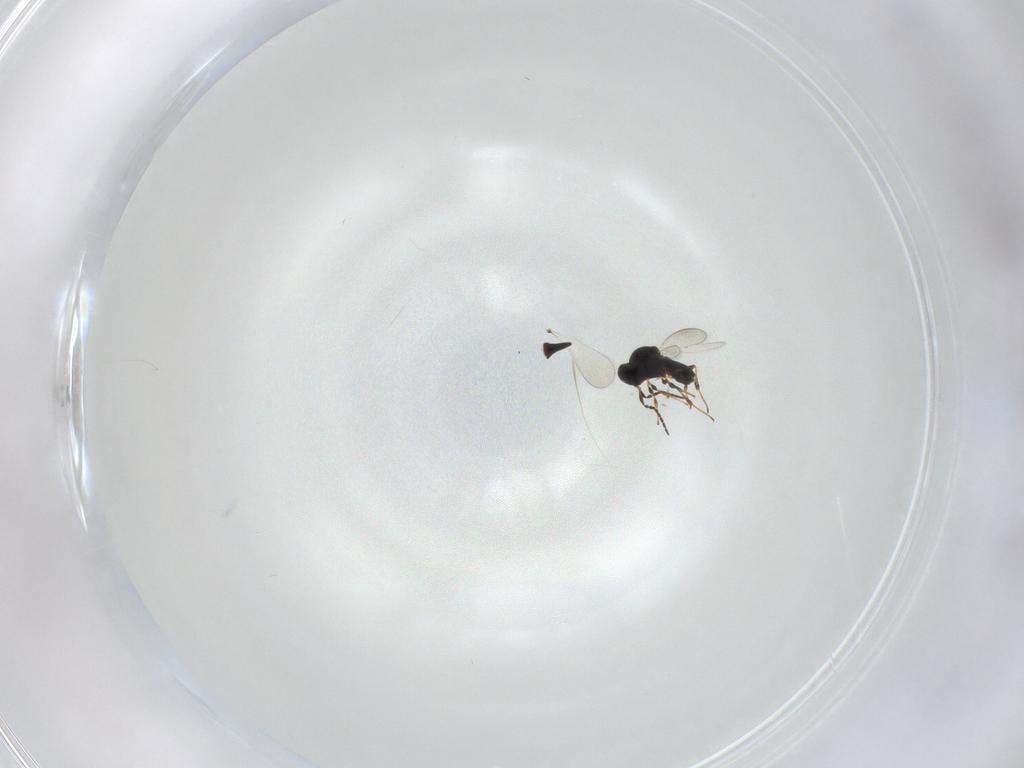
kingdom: Animalia
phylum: Arthropoda
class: Insecta
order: Hymenoptera
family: Platygastridae
